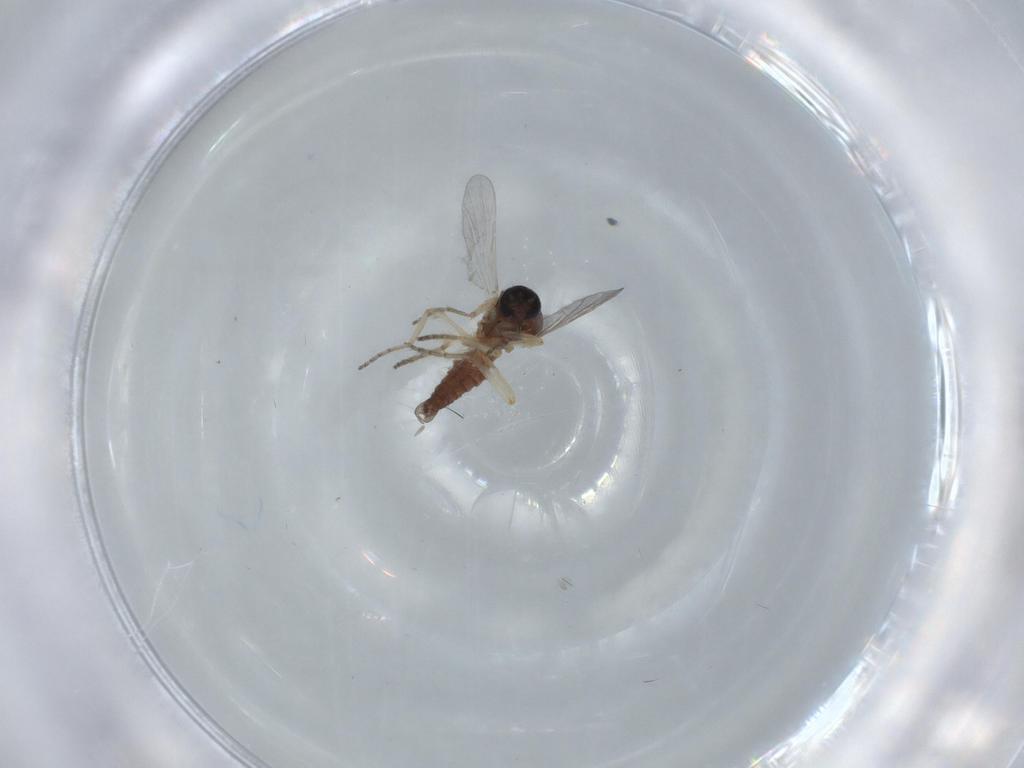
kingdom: Animalia
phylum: Arthropoda
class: Insecta
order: Diptera
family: Ceratopogonidae
